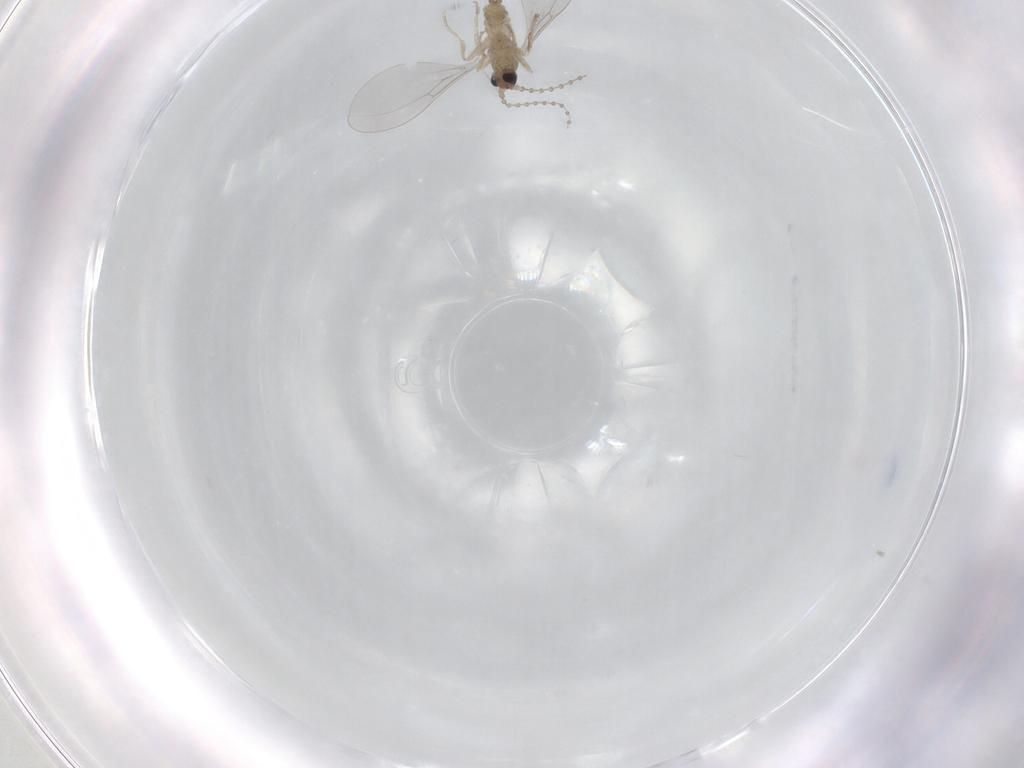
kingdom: Animalia
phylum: Arthropoda
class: Insecta
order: Diptera
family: Cecidomyiidae
